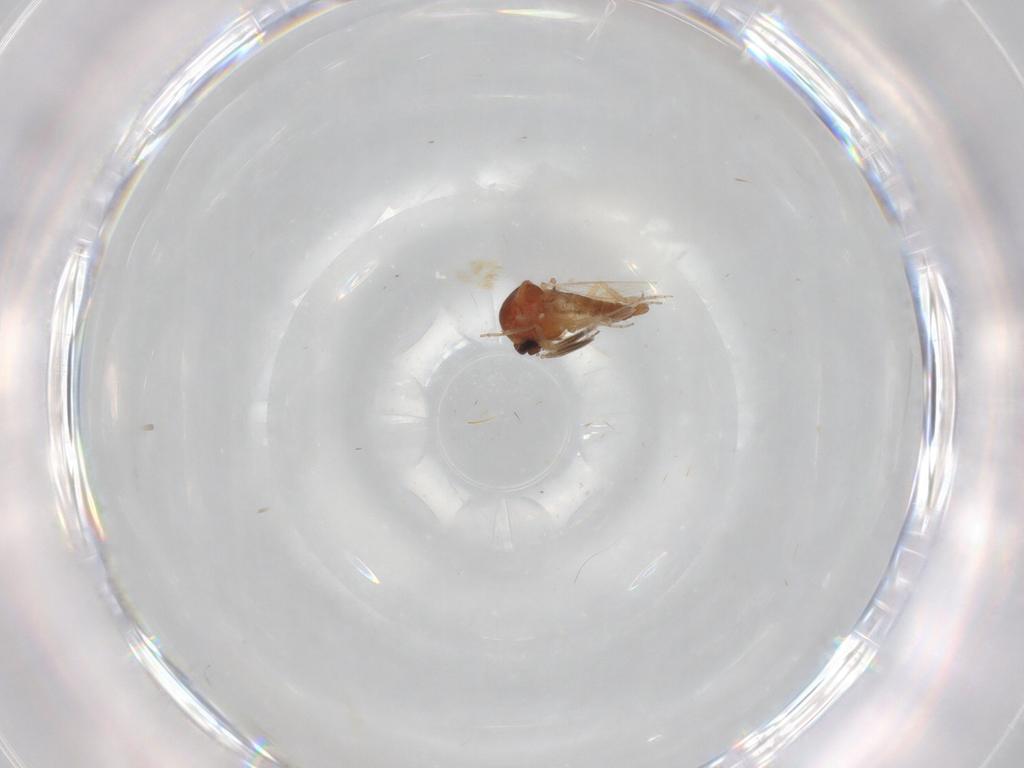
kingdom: Animalia
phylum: Arthropoda
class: Insecta
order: Diptera
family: Ceratopogonidae
